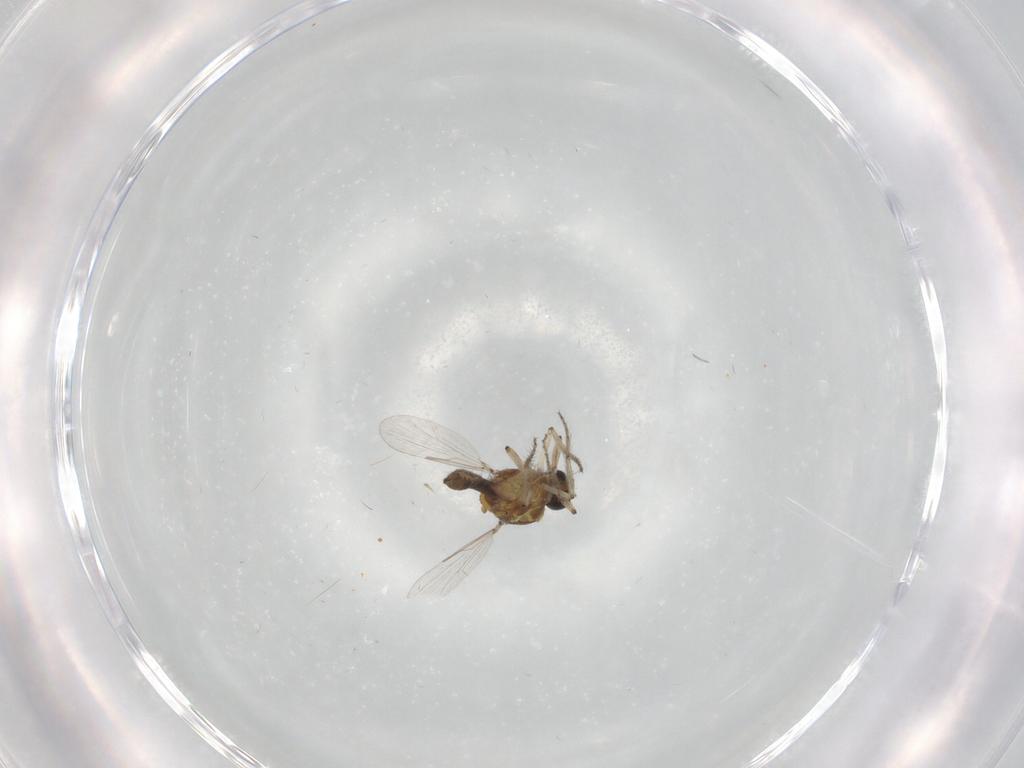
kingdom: Animalia
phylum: Arthropoda
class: Insecta
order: Diptera
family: Ceratopogonidae
